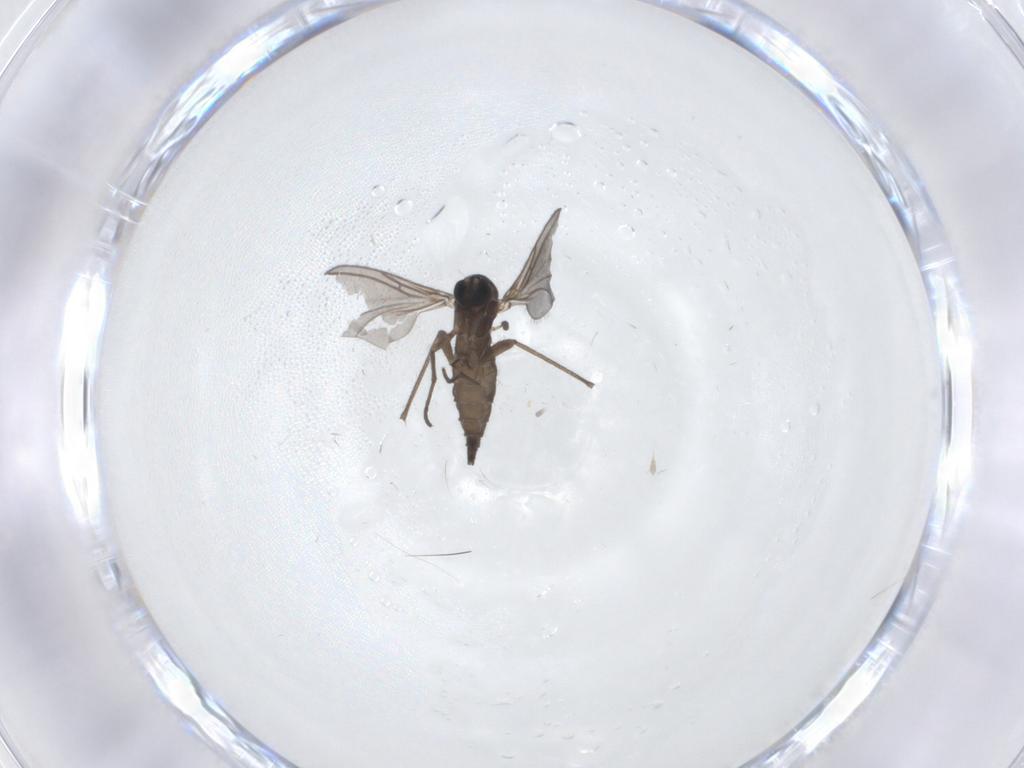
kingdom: Animalia
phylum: Arthropoda
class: Insecta
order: Diptera
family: Sciaridae
